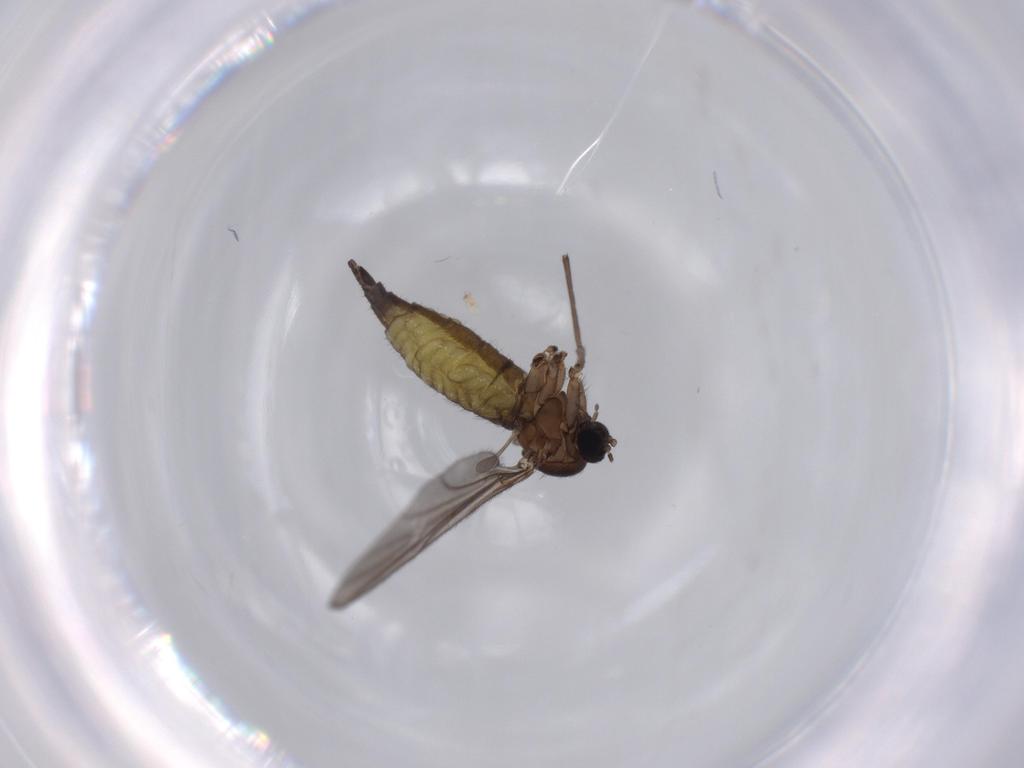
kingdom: Animalia
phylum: Arthropoda
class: Insecta
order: Diptera
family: Sciaridae
